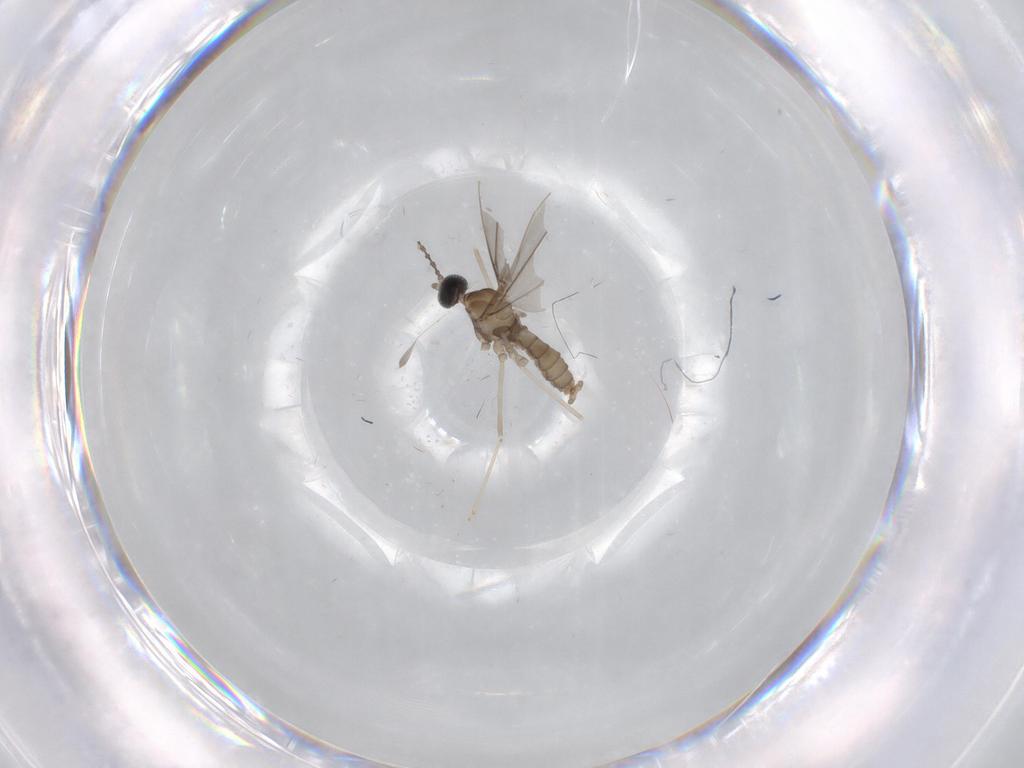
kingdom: Animalia
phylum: Arthropoda
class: Insecta
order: Diptera
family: Cecidomyiidae
